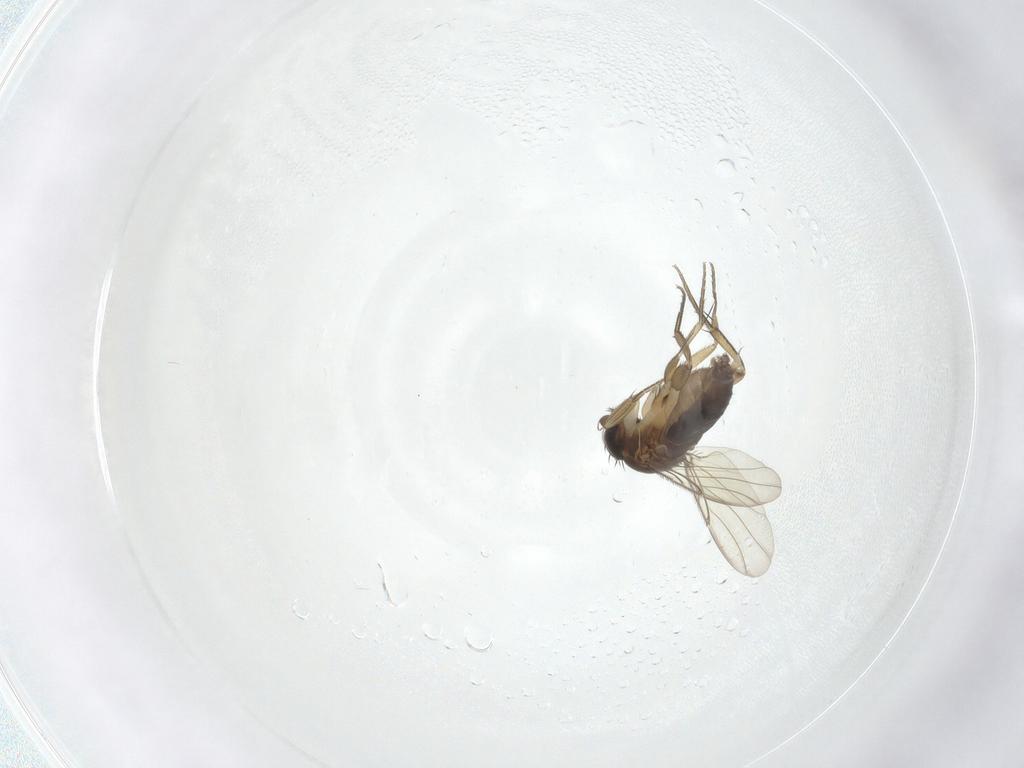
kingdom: Animalia
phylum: Arthropoda
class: Insecta
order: Diptera
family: Phoridae
